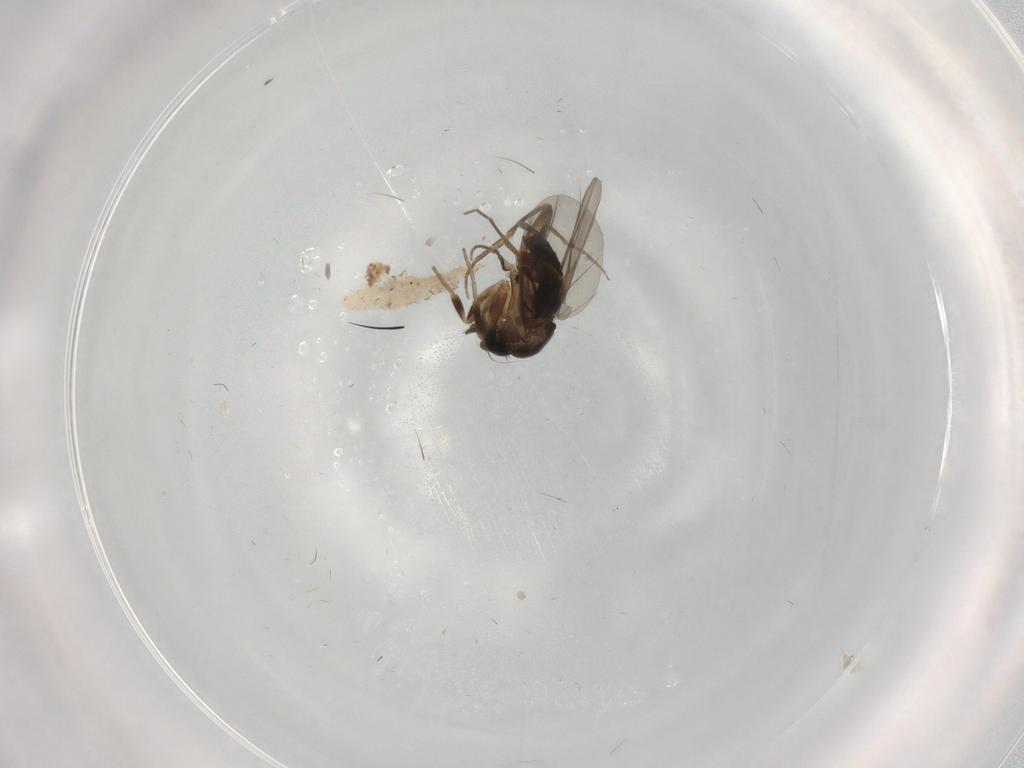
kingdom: Animalia
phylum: Arthropoda
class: Insecta
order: Diptera
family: Phoridae
